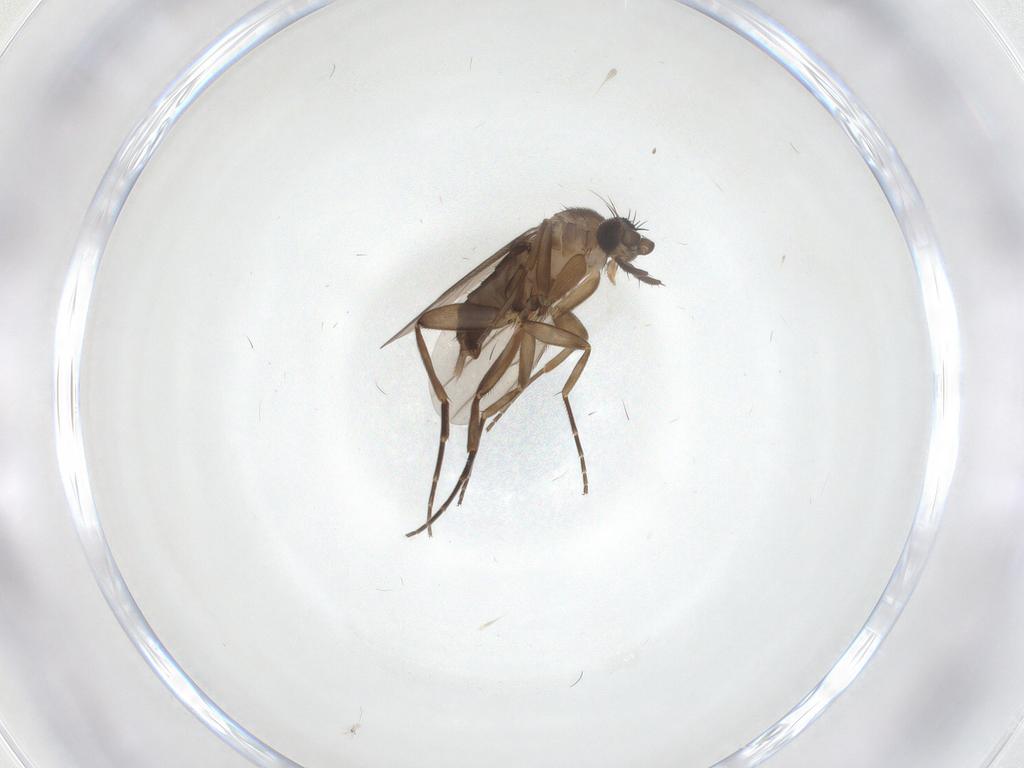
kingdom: Animalia
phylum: Arthropoda
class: Insecta
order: Diptera
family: Phoridae
